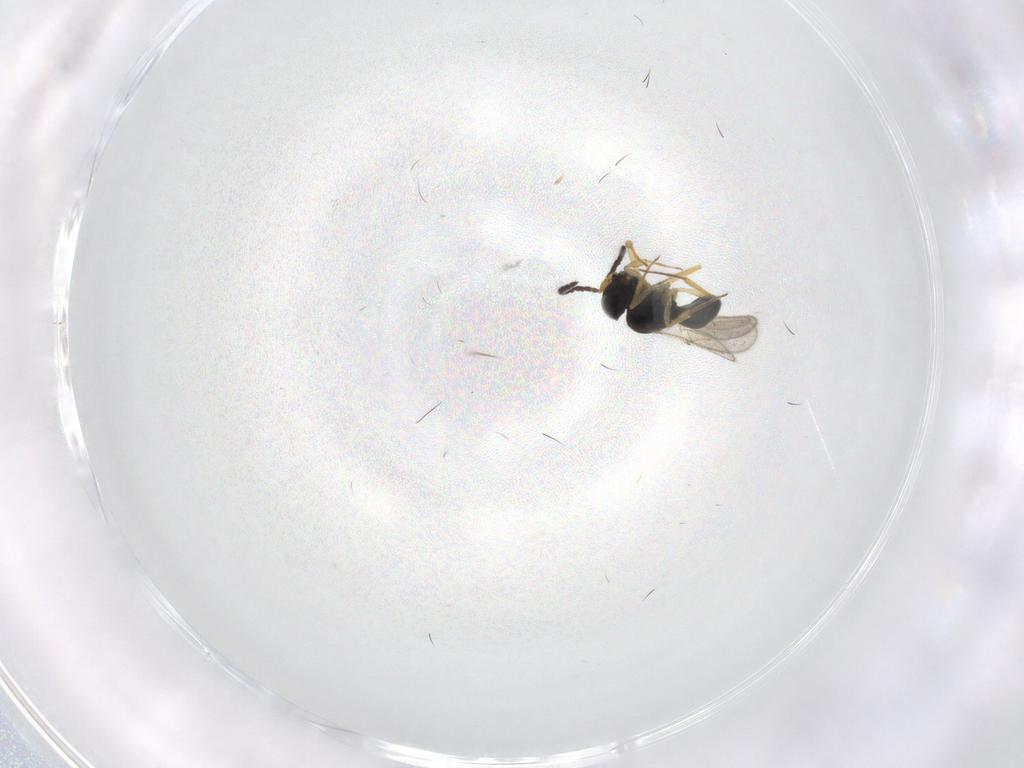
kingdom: Animalia
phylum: Arthropoda
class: Insecta
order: Hymenoptera
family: Scelionidae
